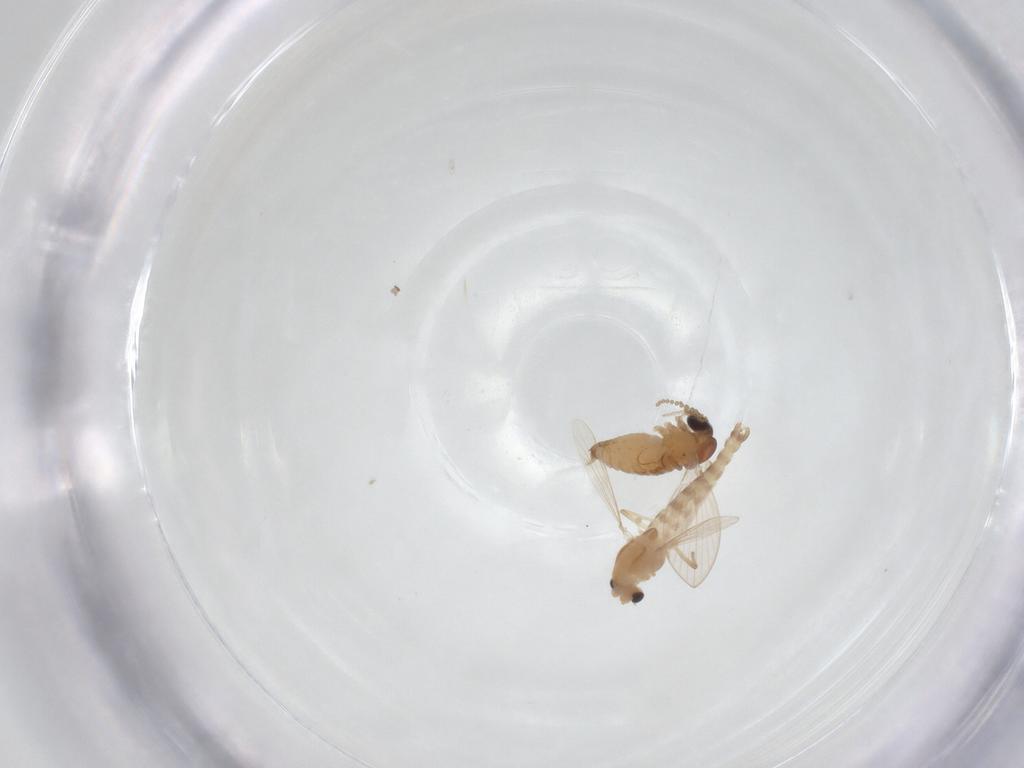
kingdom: Animalia
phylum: Arthropoda
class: Insecta
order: Diptera
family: Chironomidae
